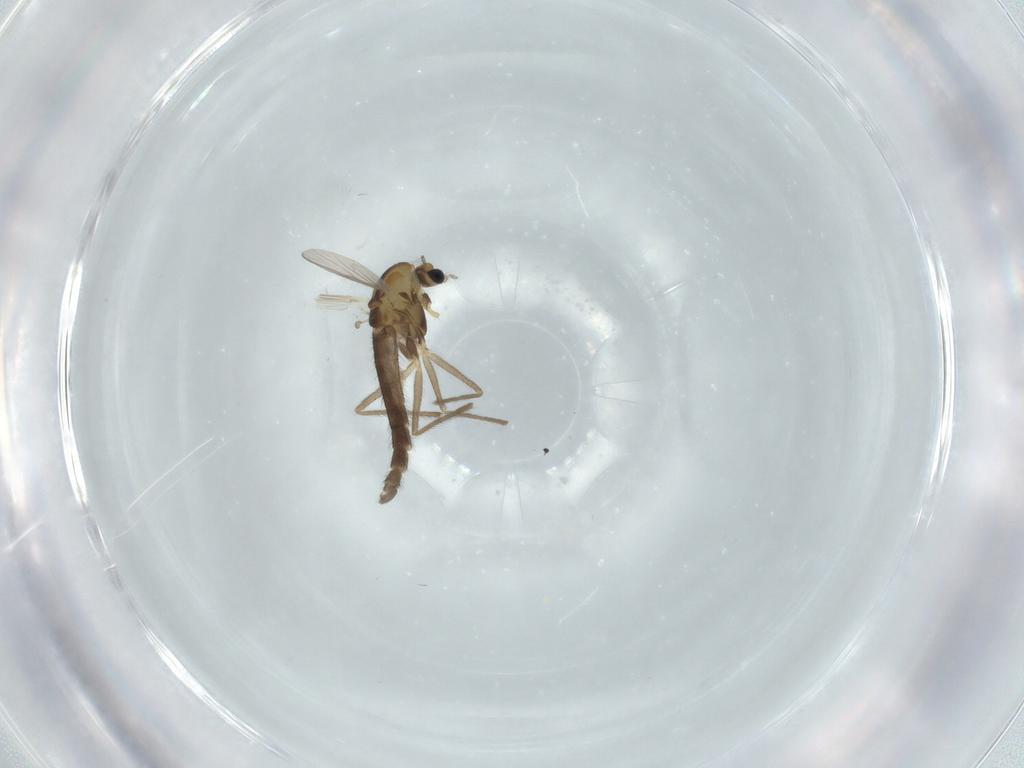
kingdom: Animalia
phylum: Arthropoda
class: Insecta
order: Diptera
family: Chironomidae
